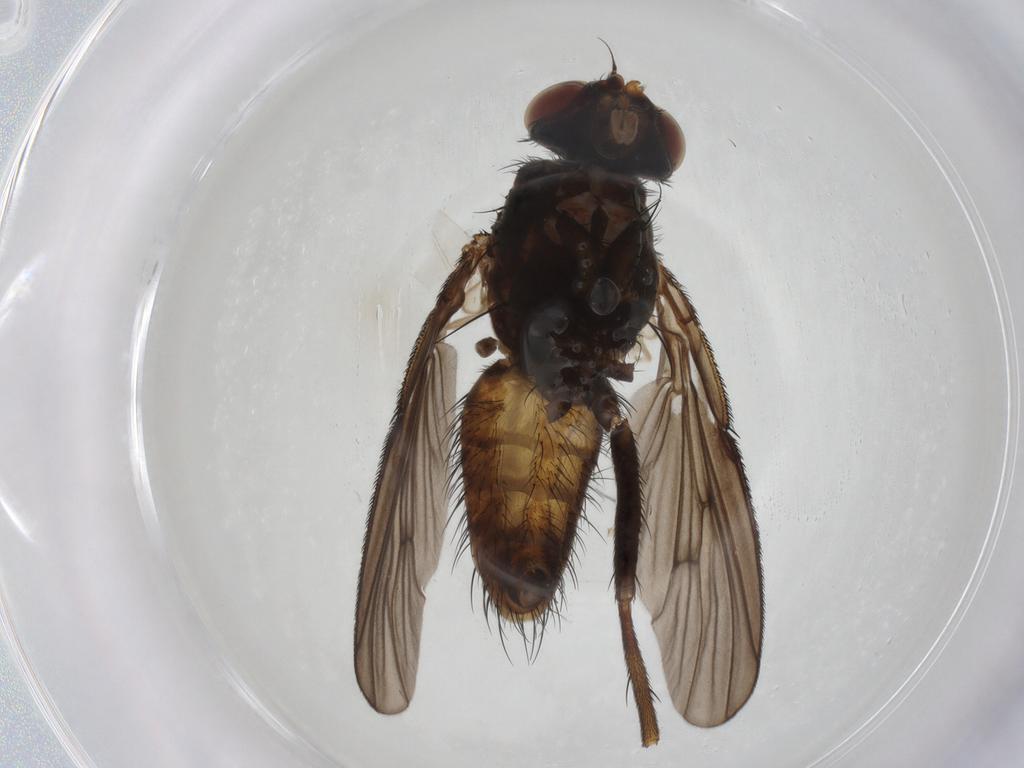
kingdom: Animalia
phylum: Arthropoda
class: Insecta
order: Diptera
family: Muscidae
